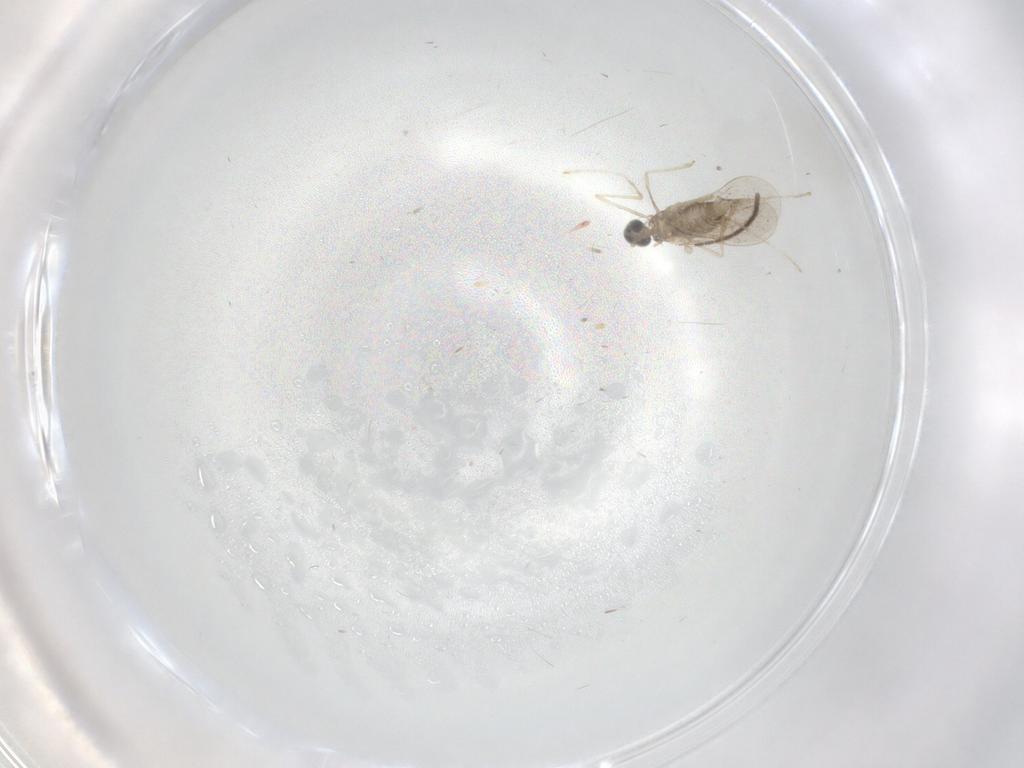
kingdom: Animalia
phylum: Arthropoda
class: Insecta
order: Diptera
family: Cecidomyiidae
